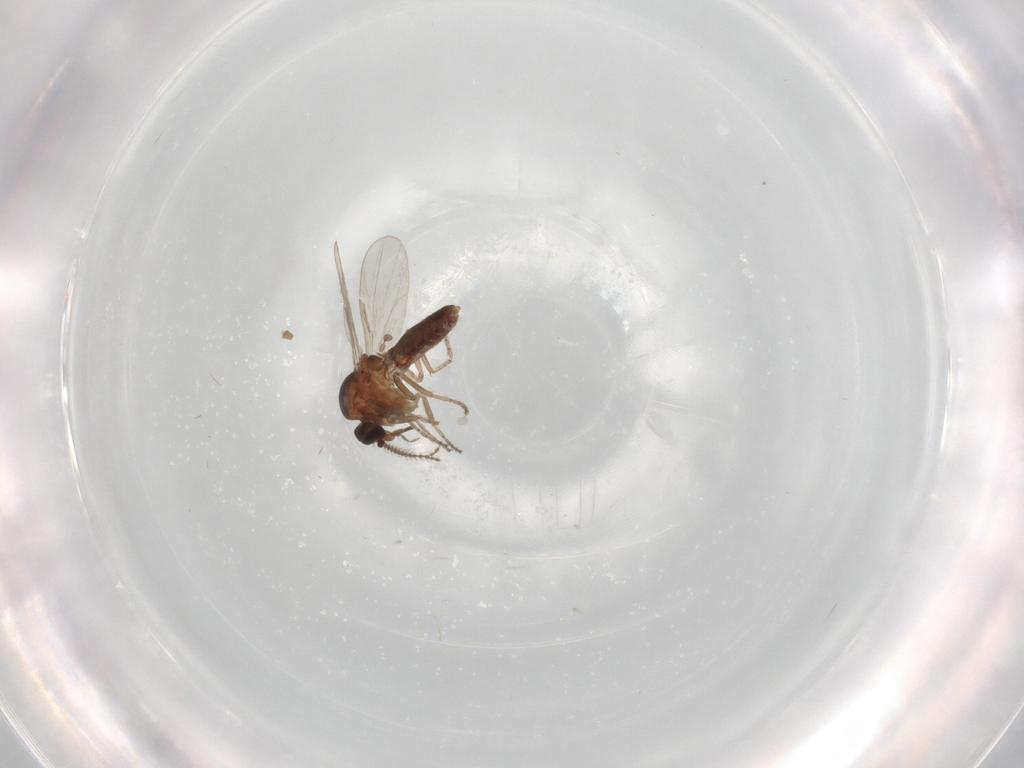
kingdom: Animalia
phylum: Arthropoda
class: Insecta
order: Diptera
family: Ceratopogonidae
